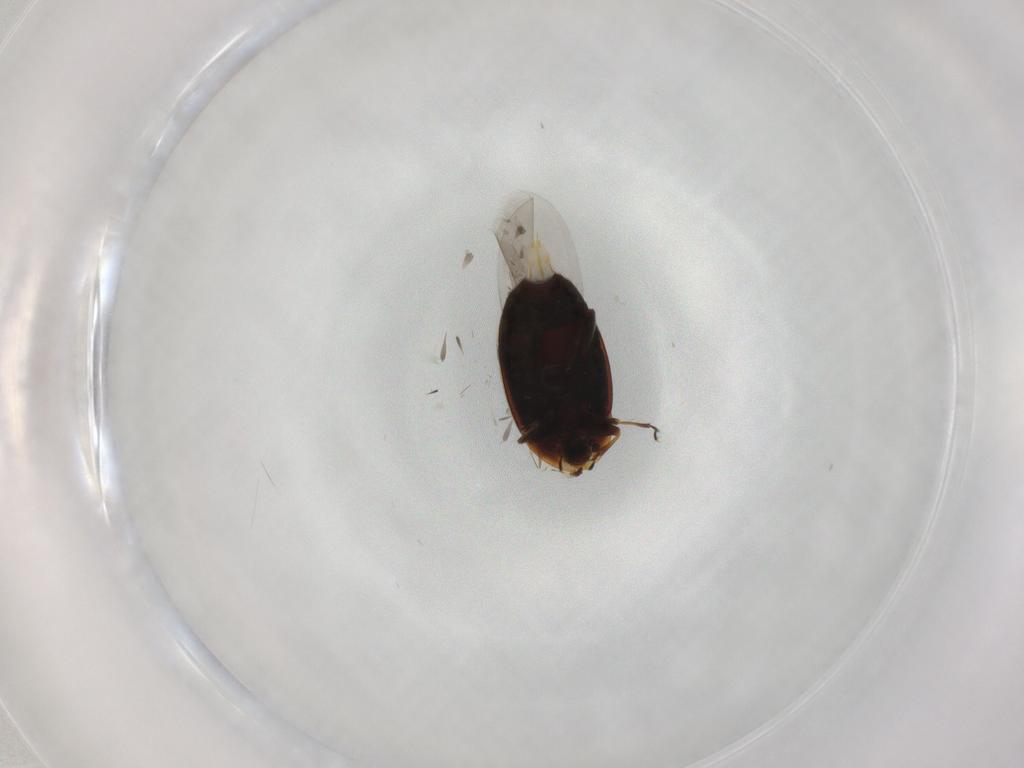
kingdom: Animalia
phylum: Arthropoda
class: Insecta
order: Coleoptera
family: Corylophidae
